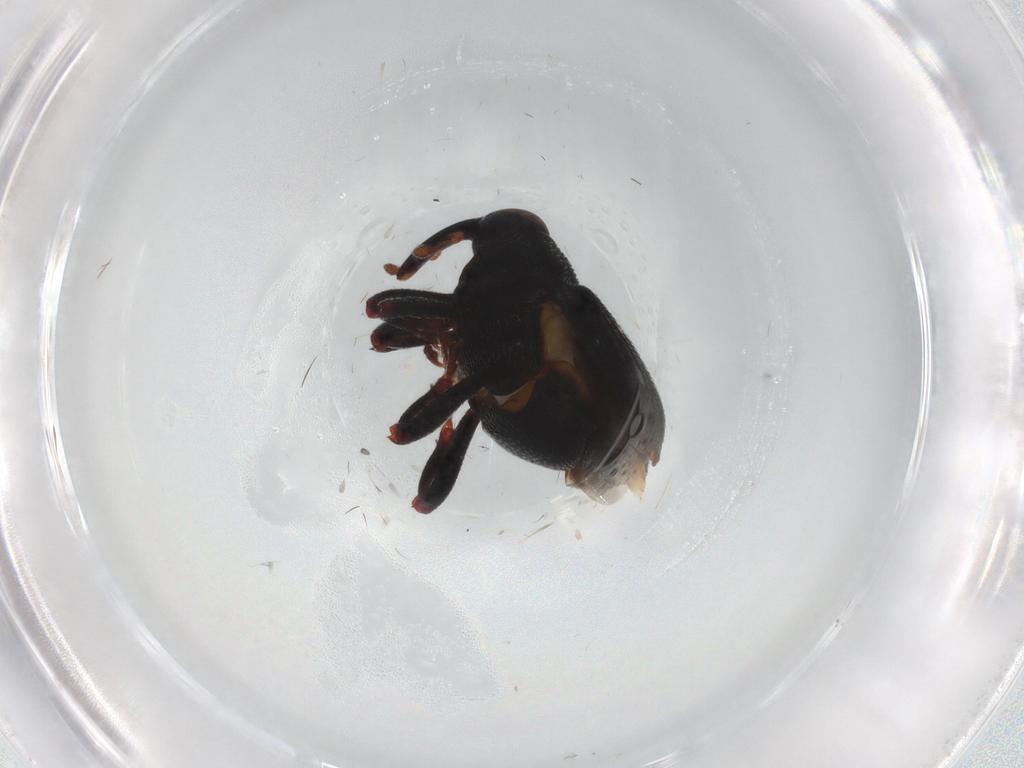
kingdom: Animalia
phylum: Arthropoda
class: Insecta
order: Coleoptera
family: Curculionidae
